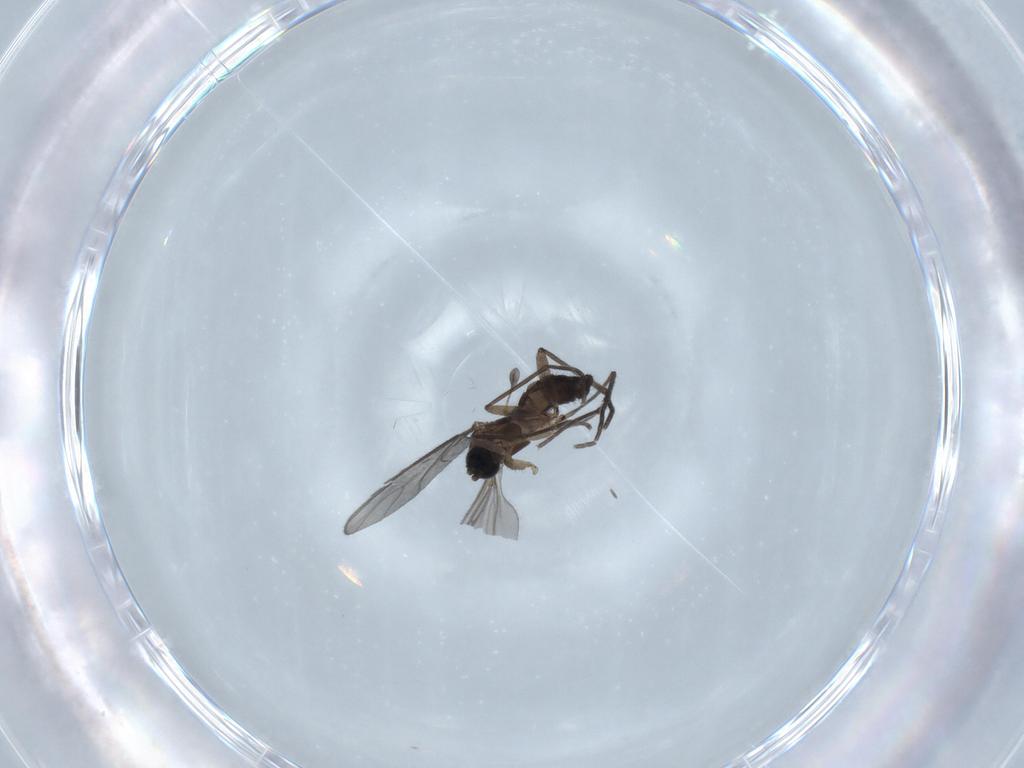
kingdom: Animalia
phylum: Arthropoda
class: Insecta
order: Diptera
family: Sciaridae
